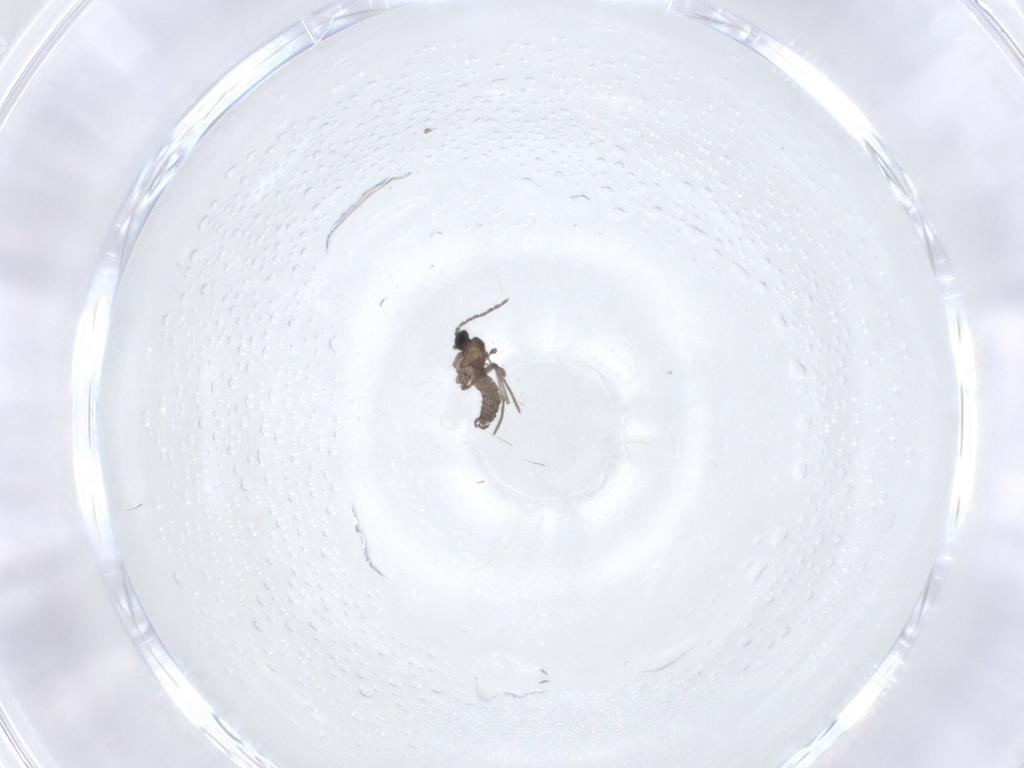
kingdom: Animalia
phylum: Arthropoda
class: Insecta
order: Diptera
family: Sciaridae
